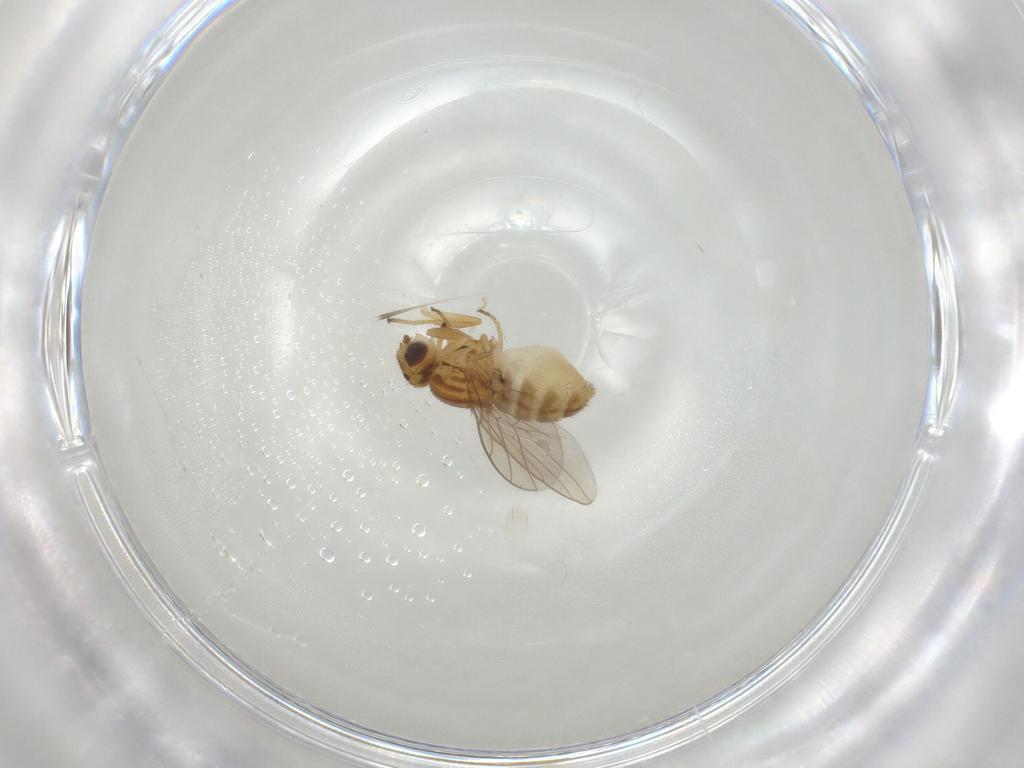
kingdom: Animalia
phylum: Arthropoda
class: Insecta
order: Diptera
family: Chloropidae
